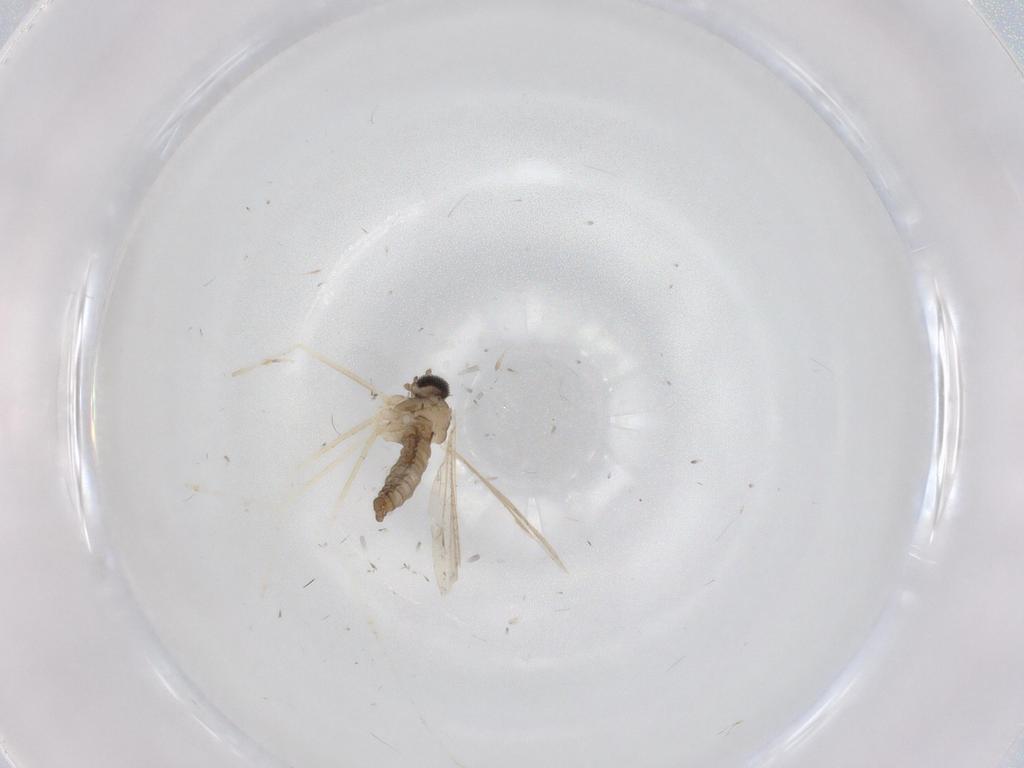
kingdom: Animalia
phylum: Arthropoda
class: Insecta
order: Diptera
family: Cecidomyiidae
